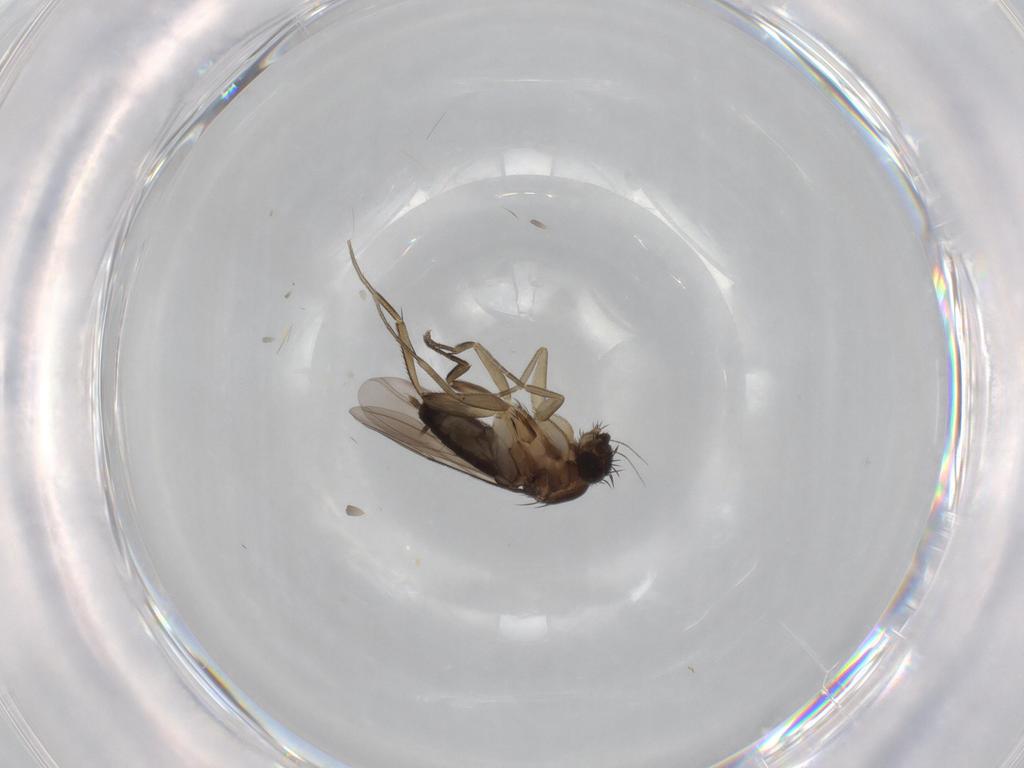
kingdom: Animalia
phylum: Arthropoda
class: Insecta
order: Diptera
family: Phoridae
